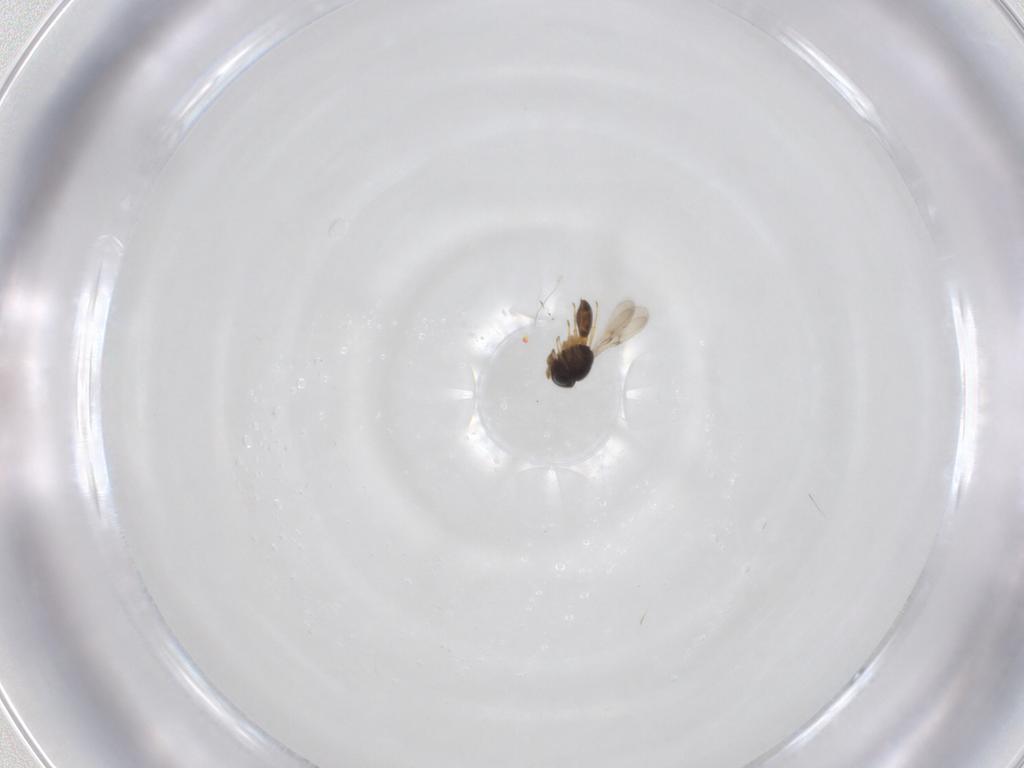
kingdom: Animalia
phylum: Arthropoda
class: Insecta
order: Hymenoptera
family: Scelionidae
